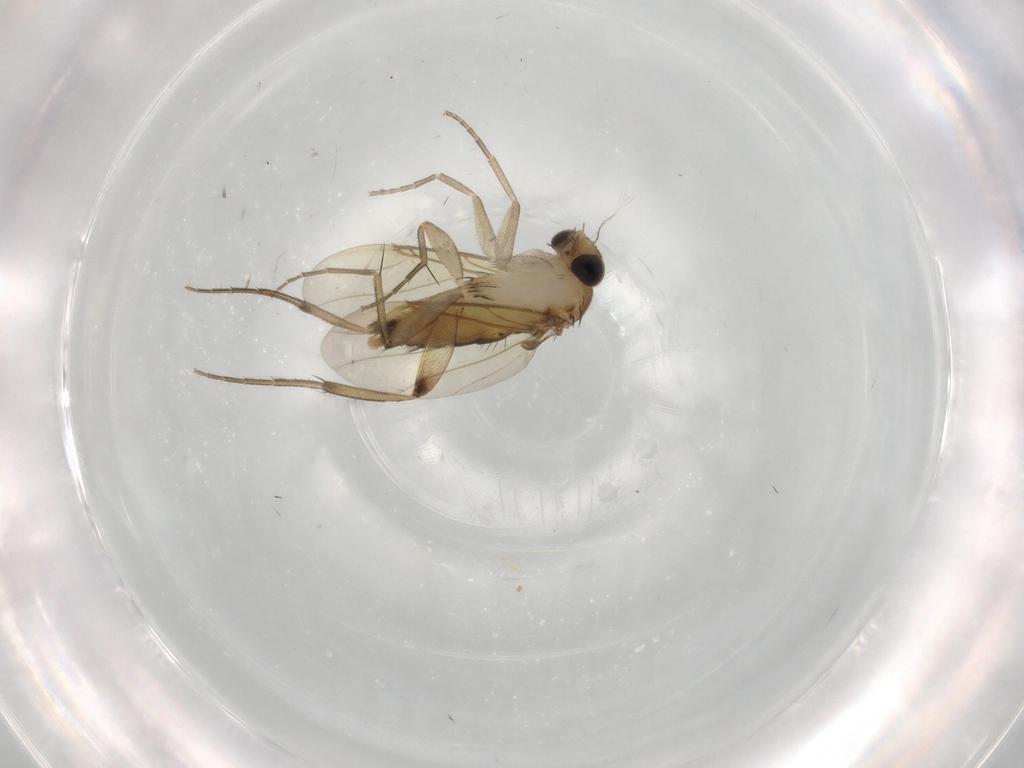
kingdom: Animalia
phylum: Arthropoda
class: Insecta
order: Diptera
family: Phoridae
